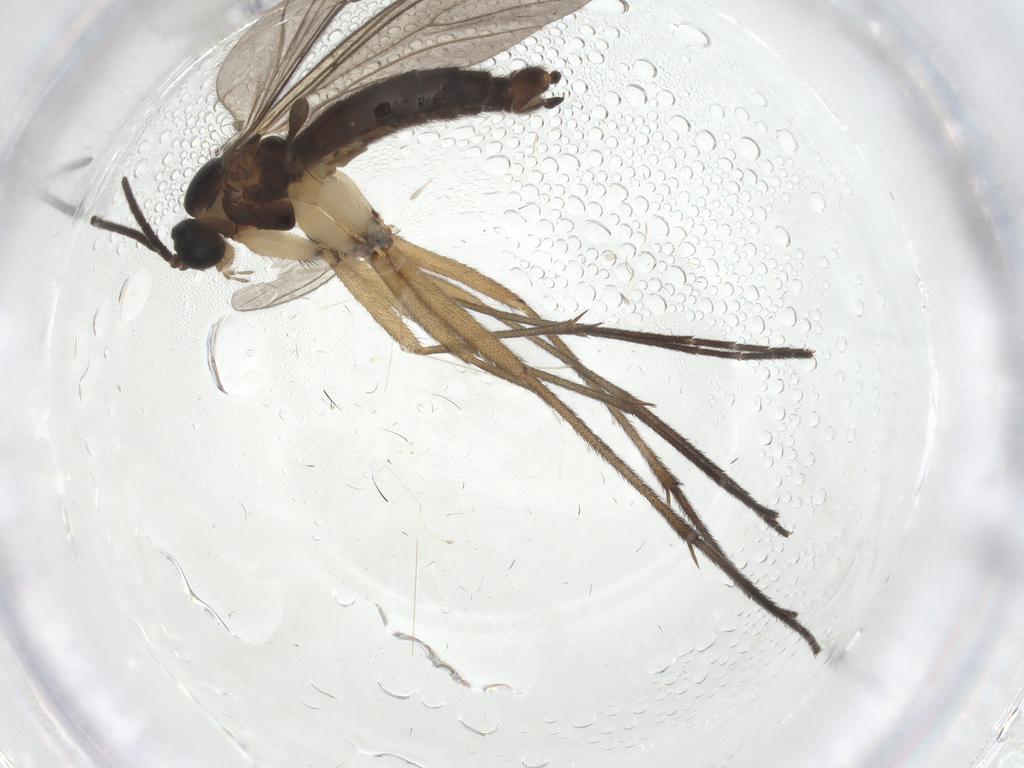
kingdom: Animalia
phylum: Arthropoda
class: Insecta
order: Diptera
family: Sciaridae
